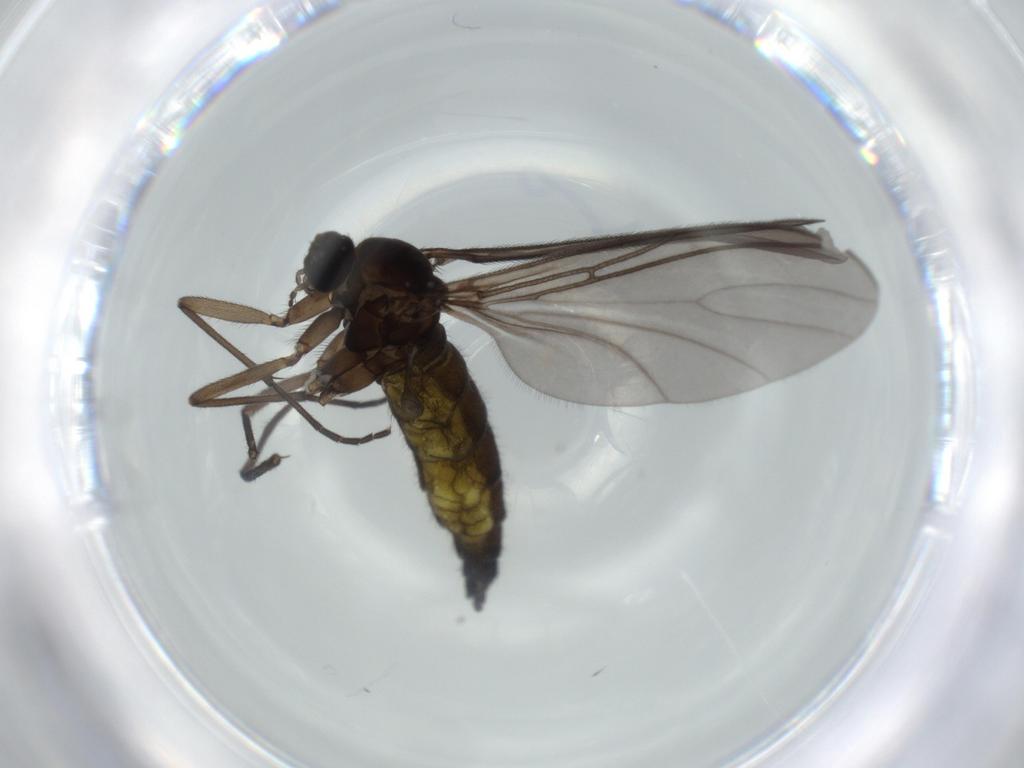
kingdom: Animalia
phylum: Arthropoda
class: Insecta
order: Diptera
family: Sciaridae
